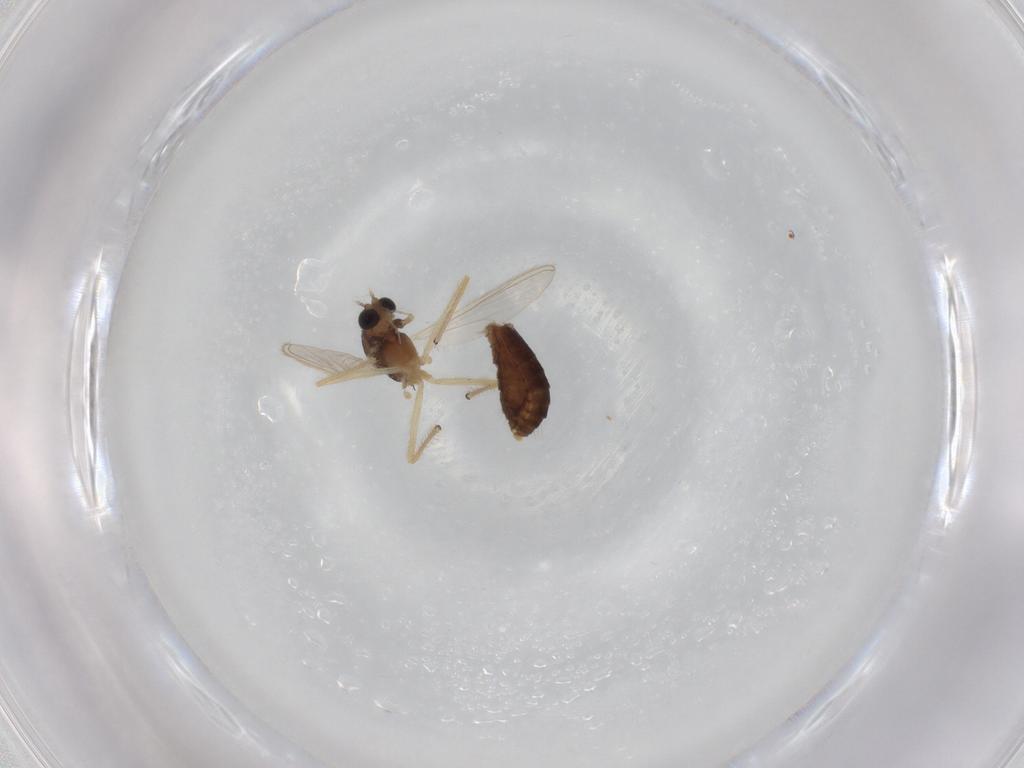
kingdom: Animalia
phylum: Arthropoda
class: Insecta
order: Diptera
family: Chironomidae
